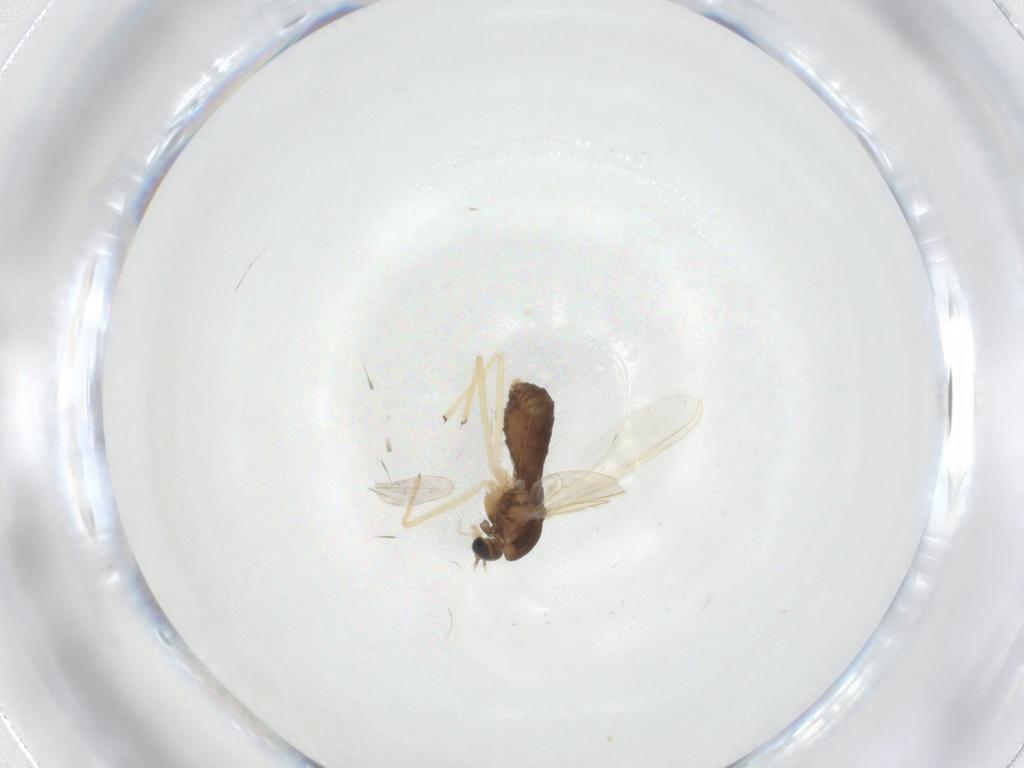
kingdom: Animalia
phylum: Arthropoda
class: Insecta
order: Diptera
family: Chironomidae
